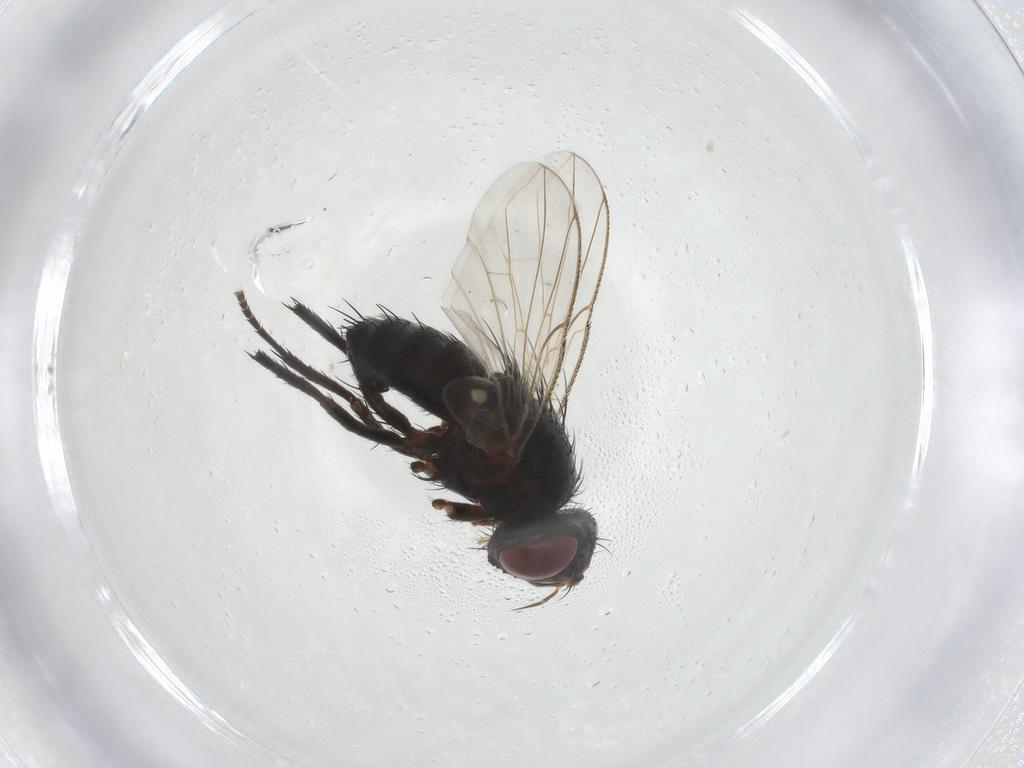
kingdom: Animalia
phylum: Arthropoda
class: Insecta
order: Diptera
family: Tachinidae
